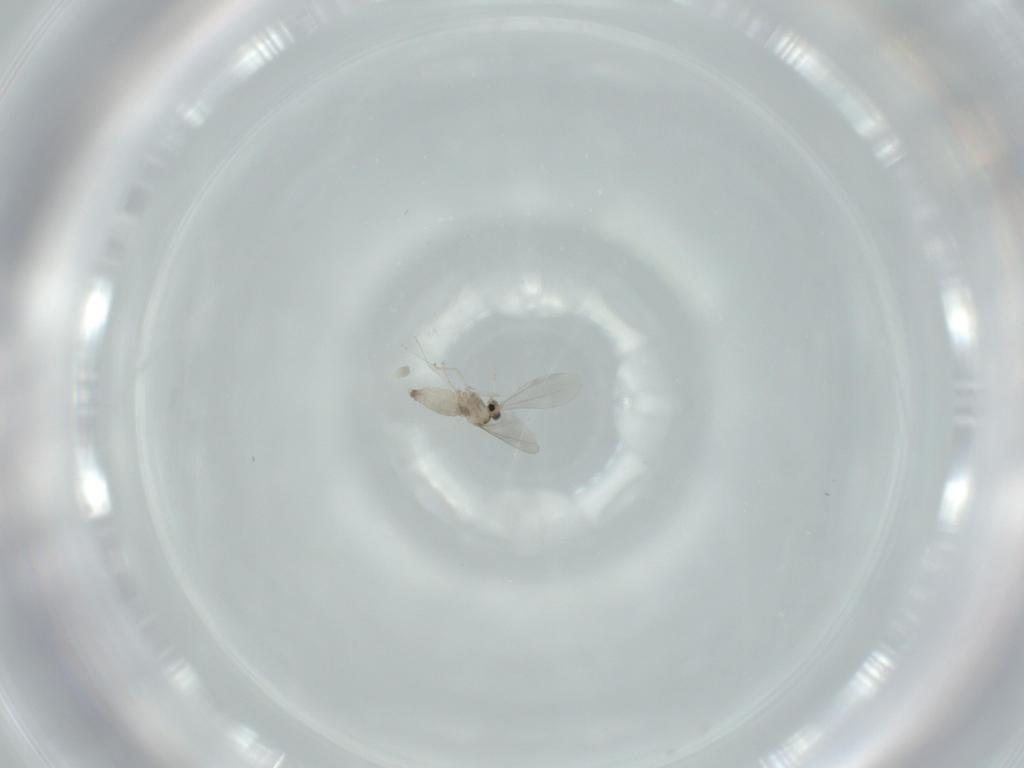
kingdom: Animalia
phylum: Arthropoda
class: Insecta
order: Diptera
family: Cecidomyiidae
